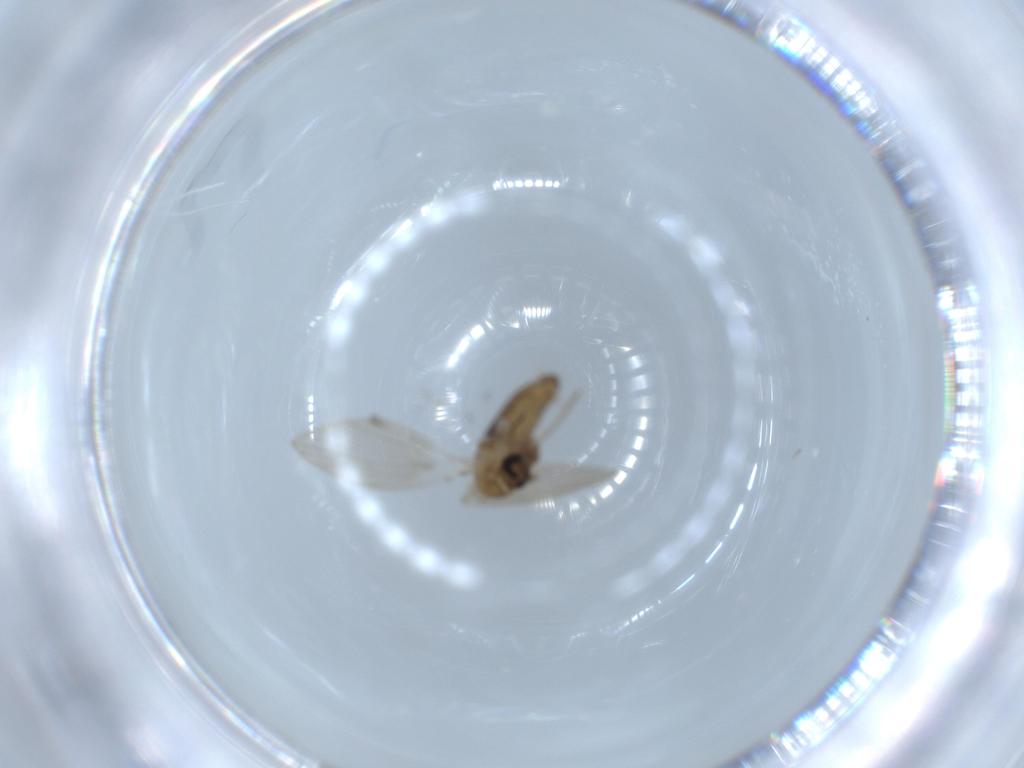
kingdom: Animalia
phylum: Arthropoda
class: Insecta
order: Diptera
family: Psychodidae
